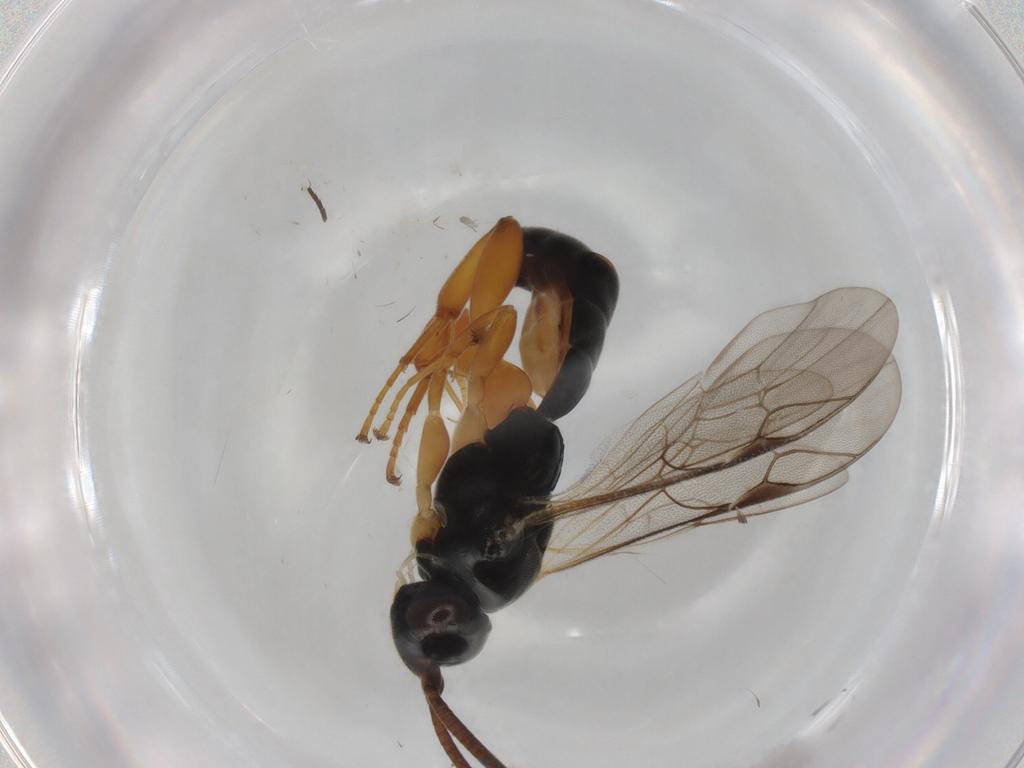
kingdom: Animalia
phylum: Arthropoda
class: Insecta
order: Hymenoptera
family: Ichneumonidae
